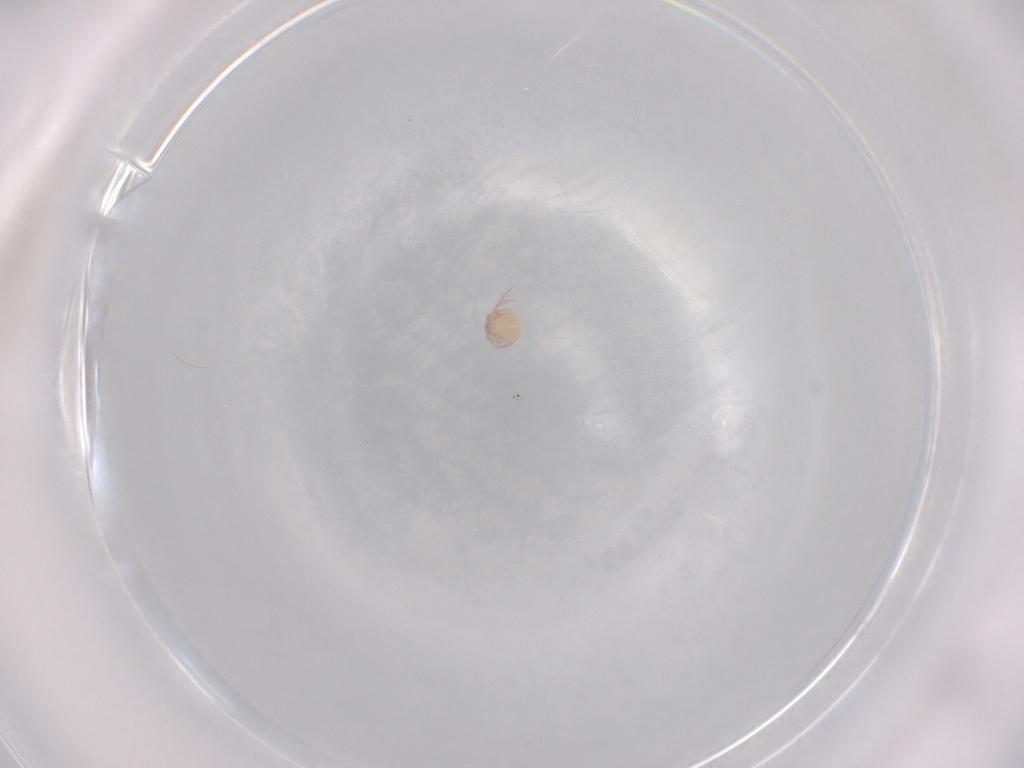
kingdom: Animalia
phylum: Arthropoda
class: Arachnida
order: Trombidiformes
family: Lebertiidae
